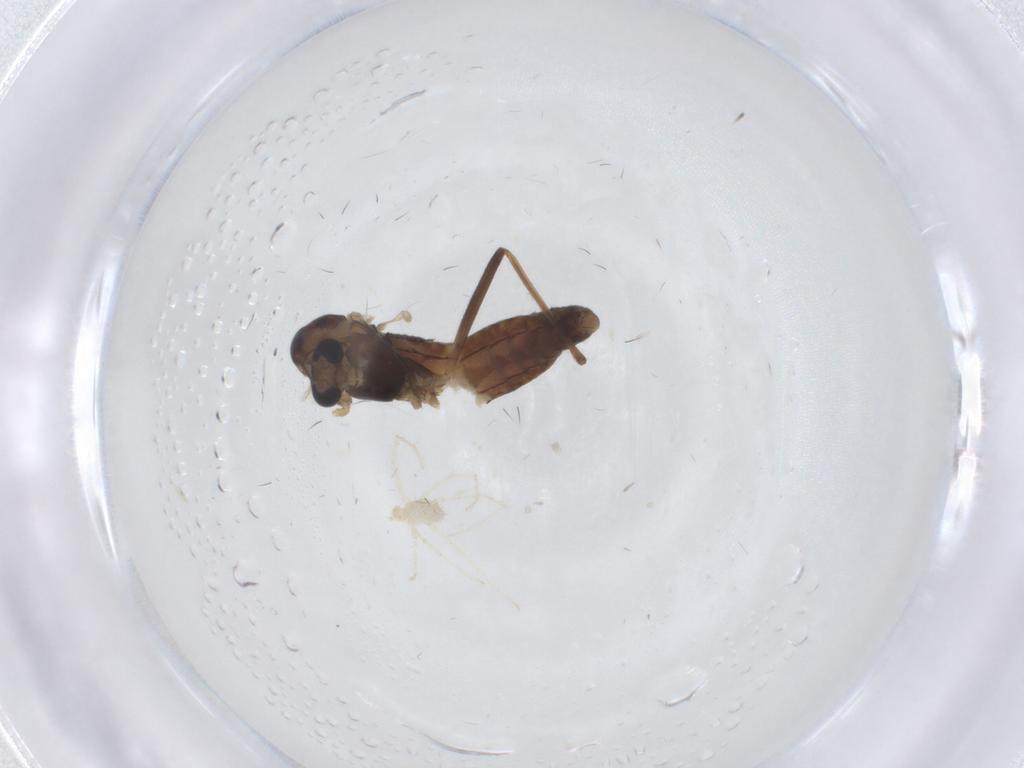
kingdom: Animalia
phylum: Arthropoda
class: Insecta
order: Diptera
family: Chironomidae
